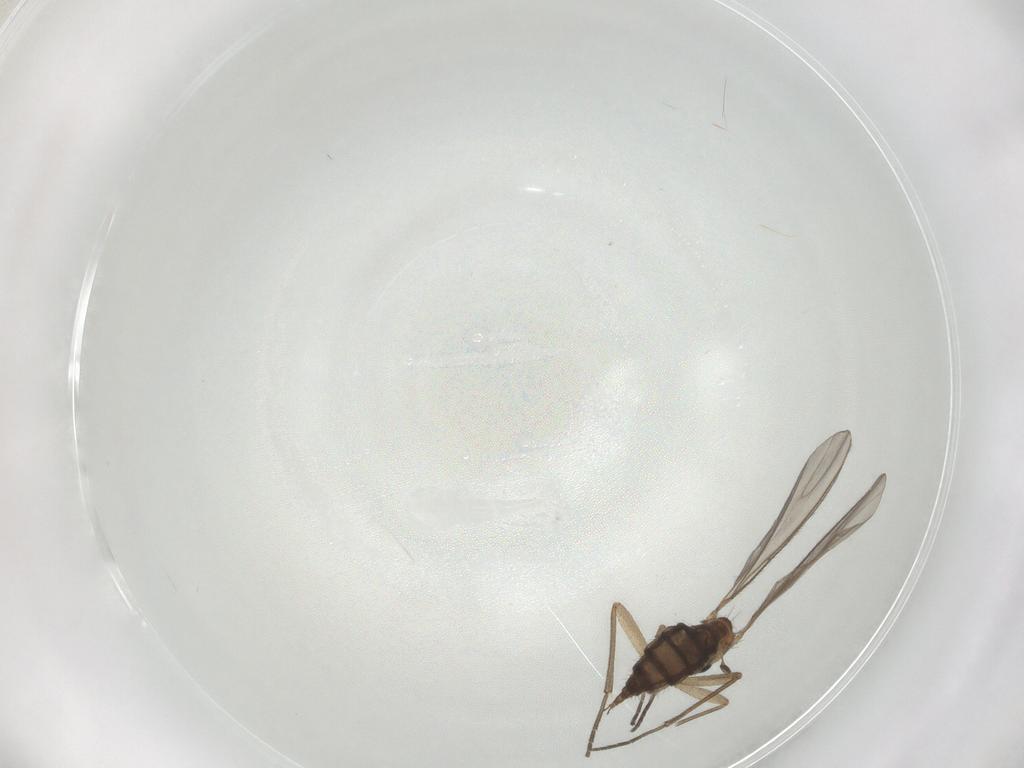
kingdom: Animalia
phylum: Arthropoda
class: Insecta
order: Diptera
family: Sciaridae
